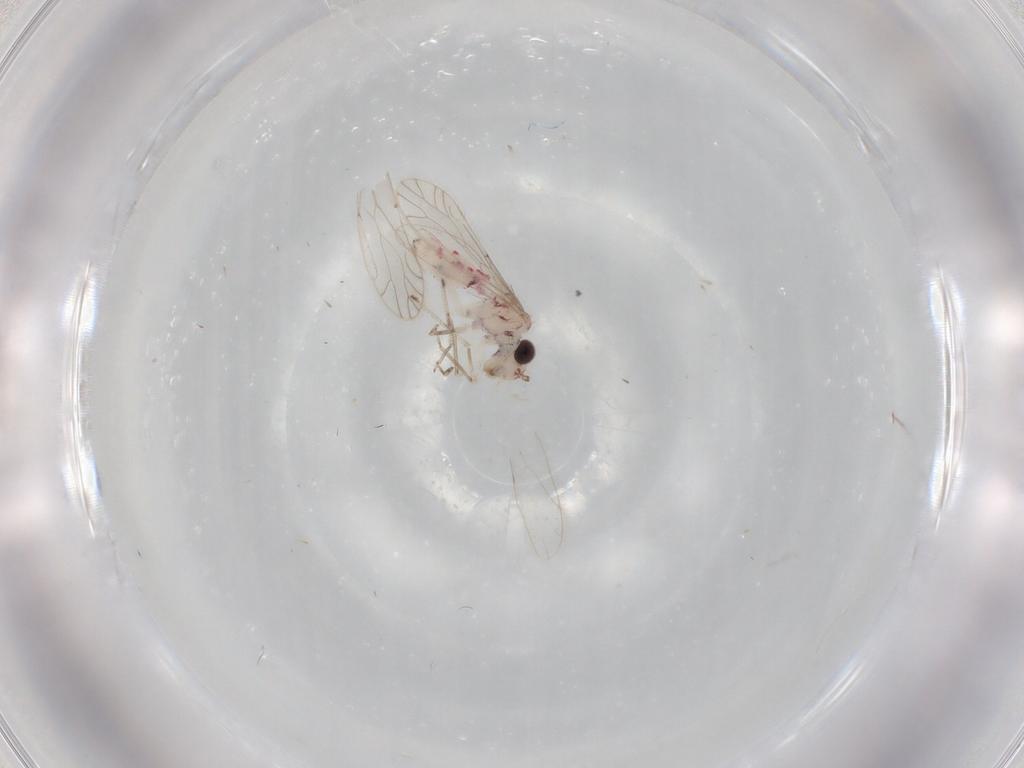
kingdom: Animalia
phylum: Arthropoda
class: Insecta
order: Psocodea
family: Caeciliusidae
